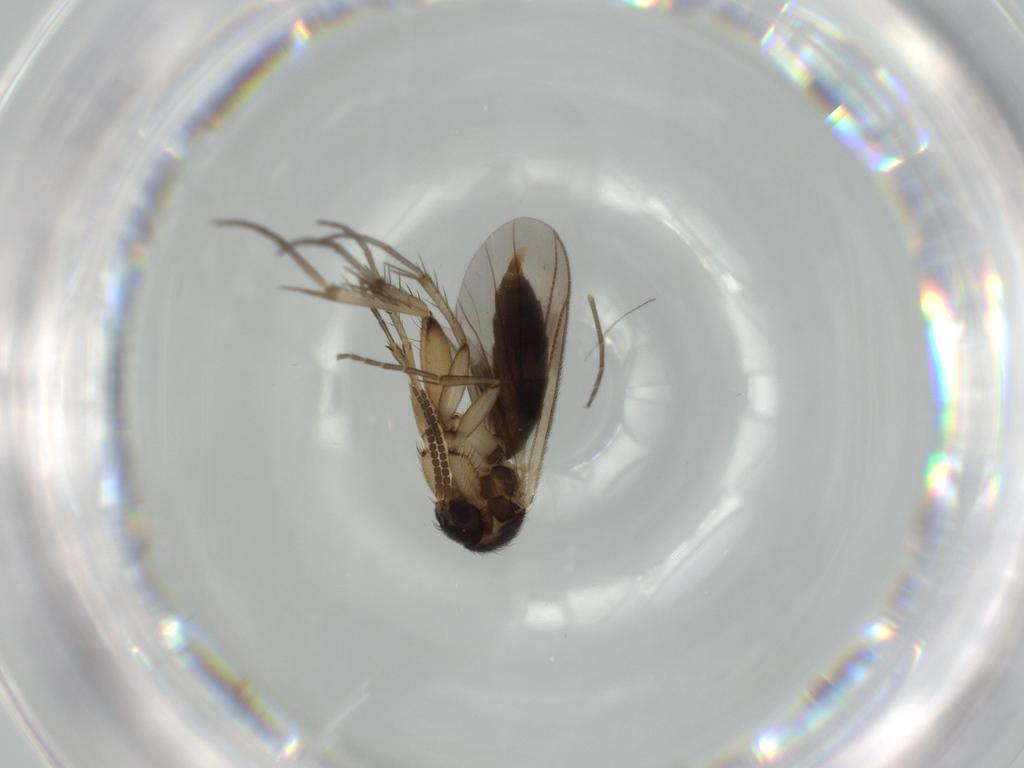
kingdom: Animalia
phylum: Arthropoda
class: Insecta
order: Diptera
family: Mycetophilidae
